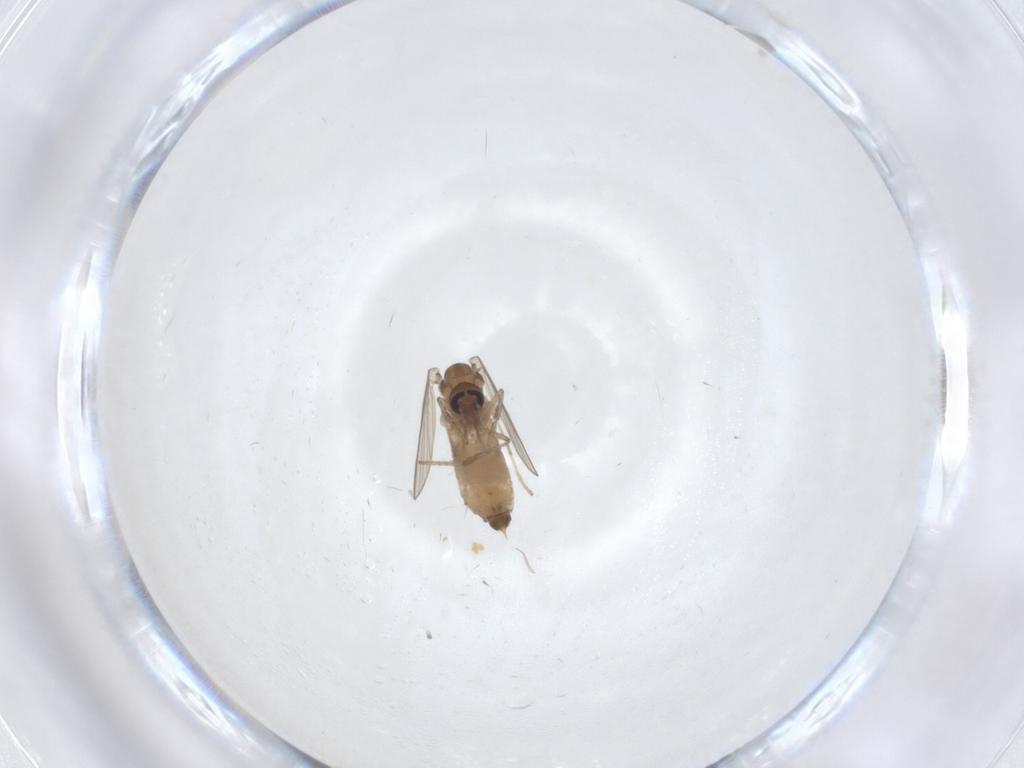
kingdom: Animalia
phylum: Arthropoda
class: Insecta
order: Diptera
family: Psychodidae
